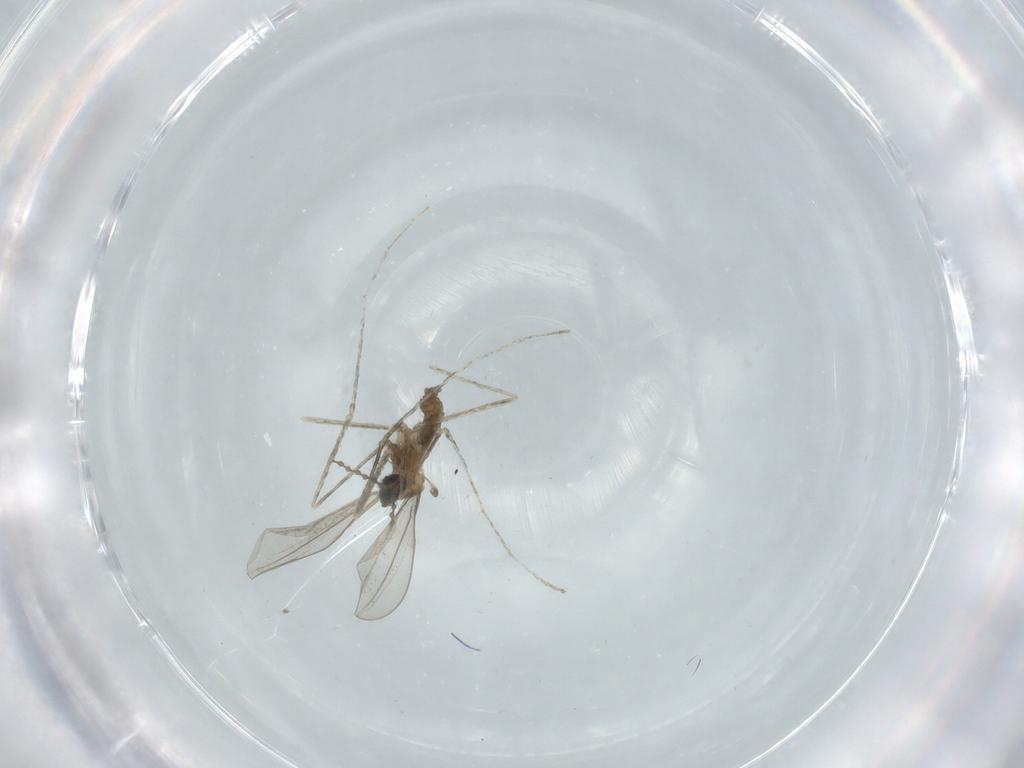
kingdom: Animalia
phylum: Arthropoda
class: Insecta
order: Diptera
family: Cecidomyiidae
